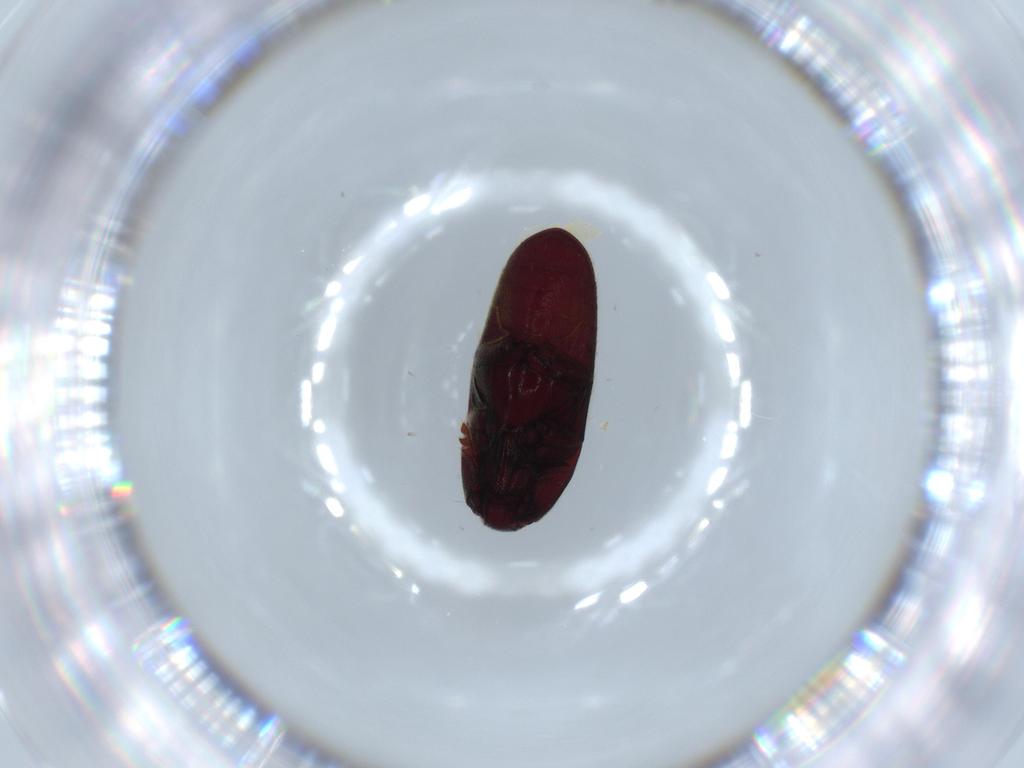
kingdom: Animalia
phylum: Arthropoda
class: Insecta
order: Coleoptera
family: Throscidae
